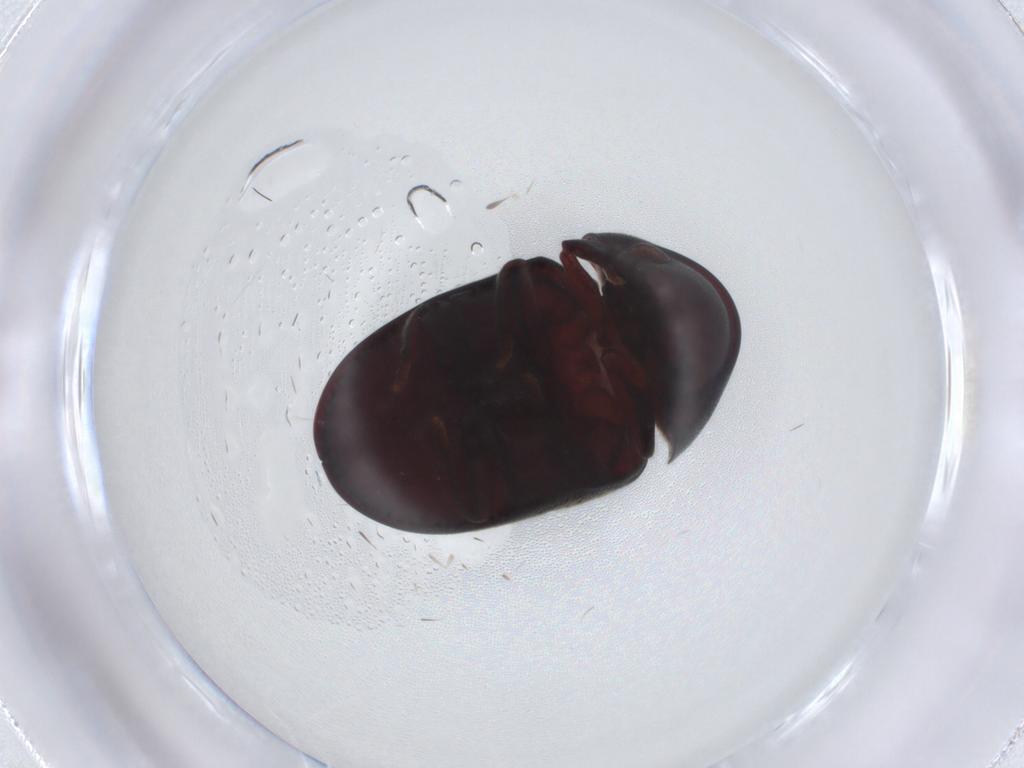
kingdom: Animalia
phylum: Arthropoda
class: Insecta
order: Coleoptera
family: Ptinidae
